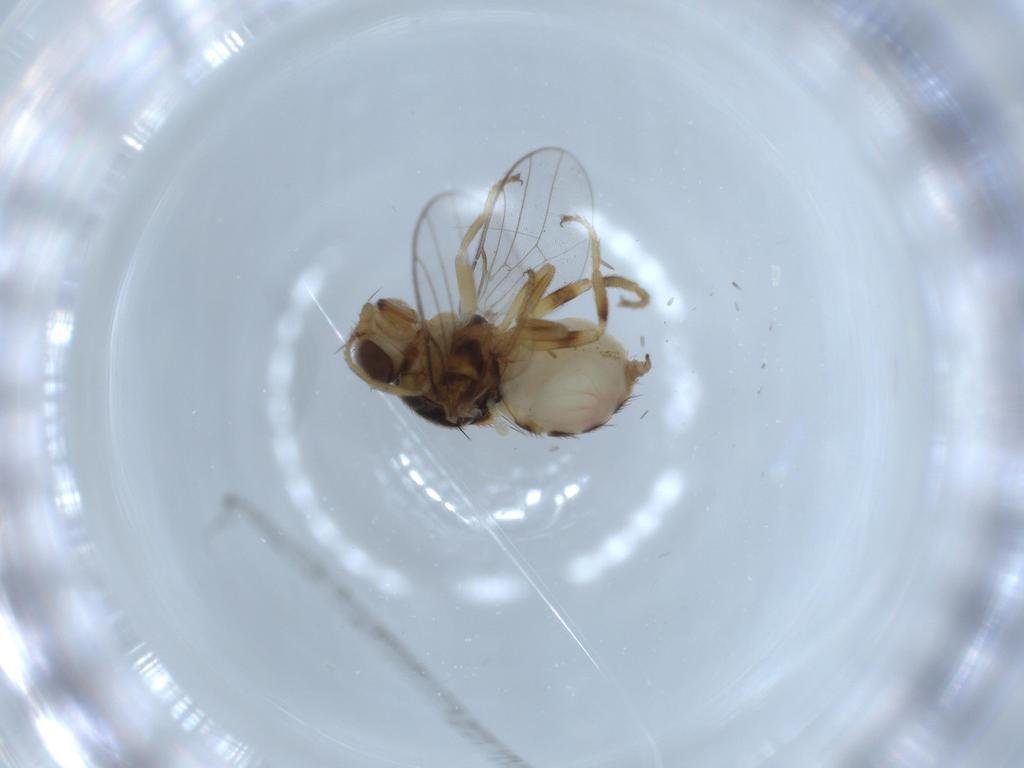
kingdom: Animalia
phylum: Arthropoda
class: Insecta
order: Diptera
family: Chloropidae
